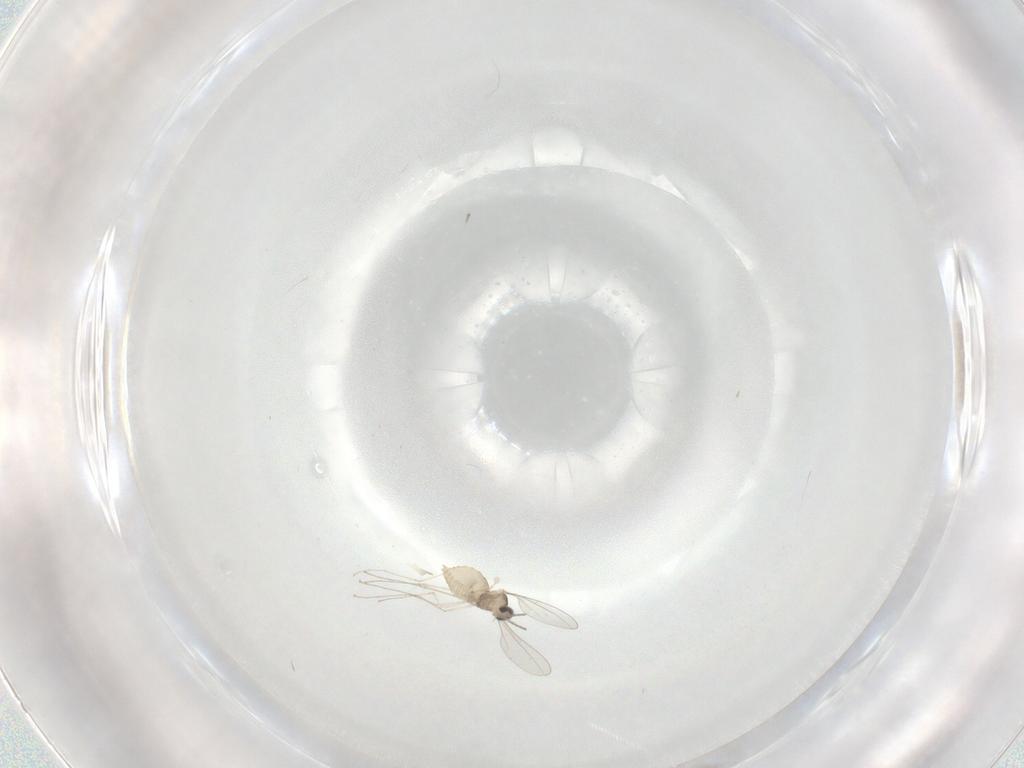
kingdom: Animalia
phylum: Arthropoda
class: Insecta
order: Diptera
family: Cecidomyiidae
